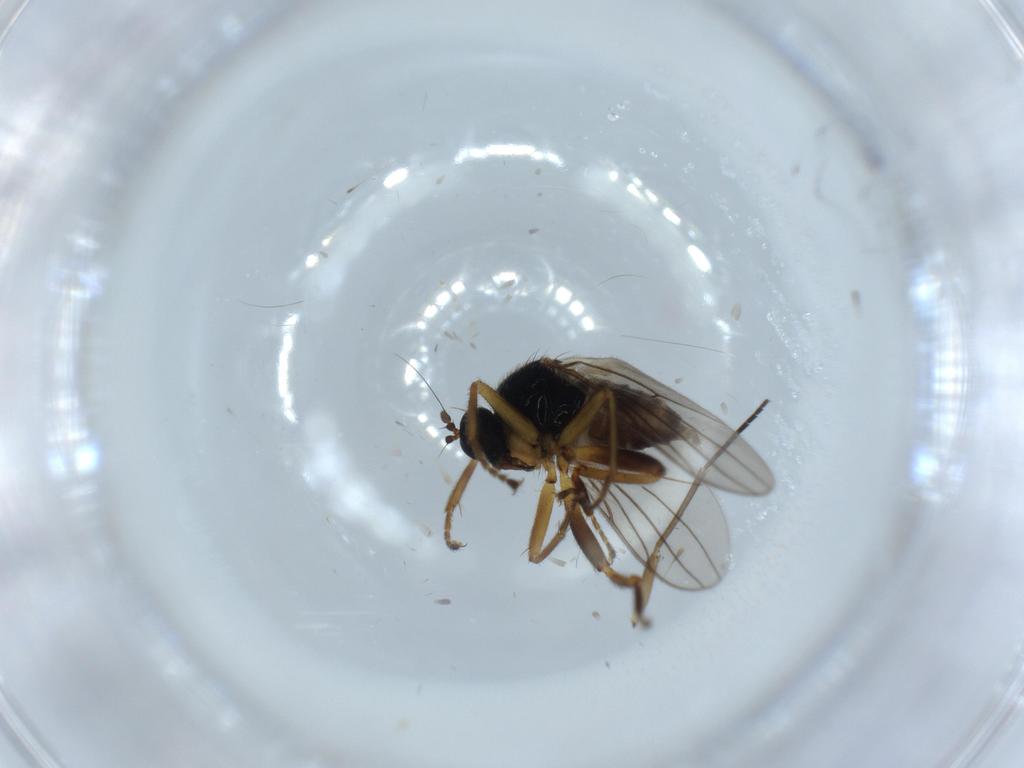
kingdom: Animalia
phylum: Arthropoda
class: Insecta
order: Diptera
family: Hybotidae
